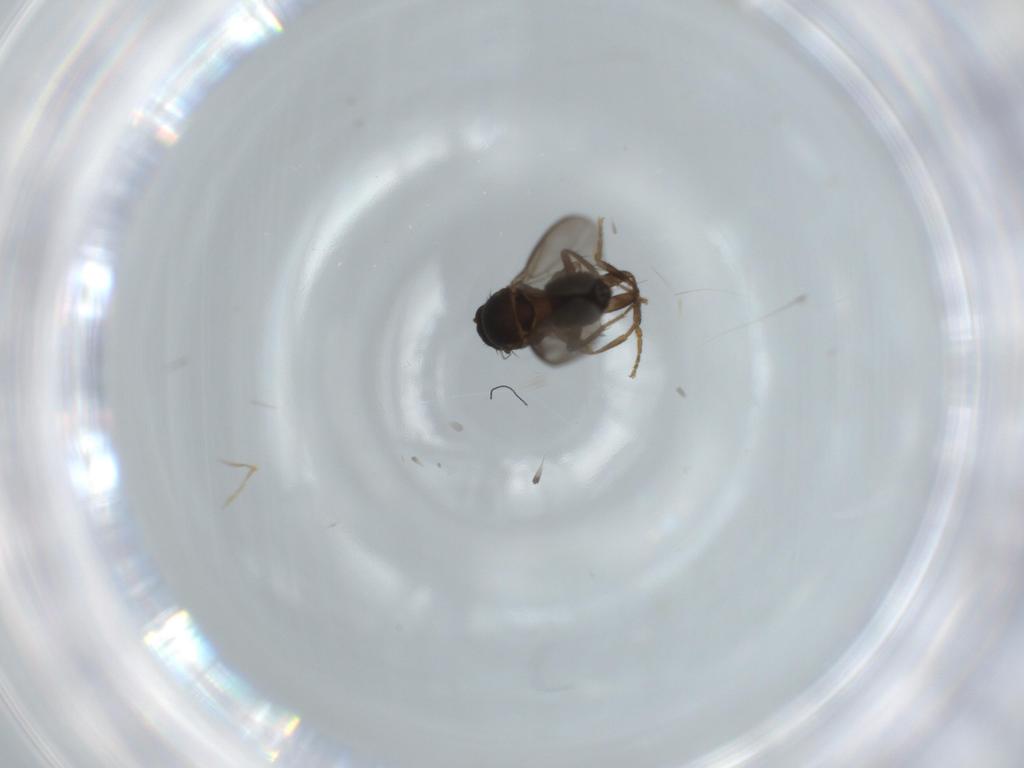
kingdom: Animalia
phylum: Arthropoda
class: Insecta
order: Diptera
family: Sphaeroceridae
